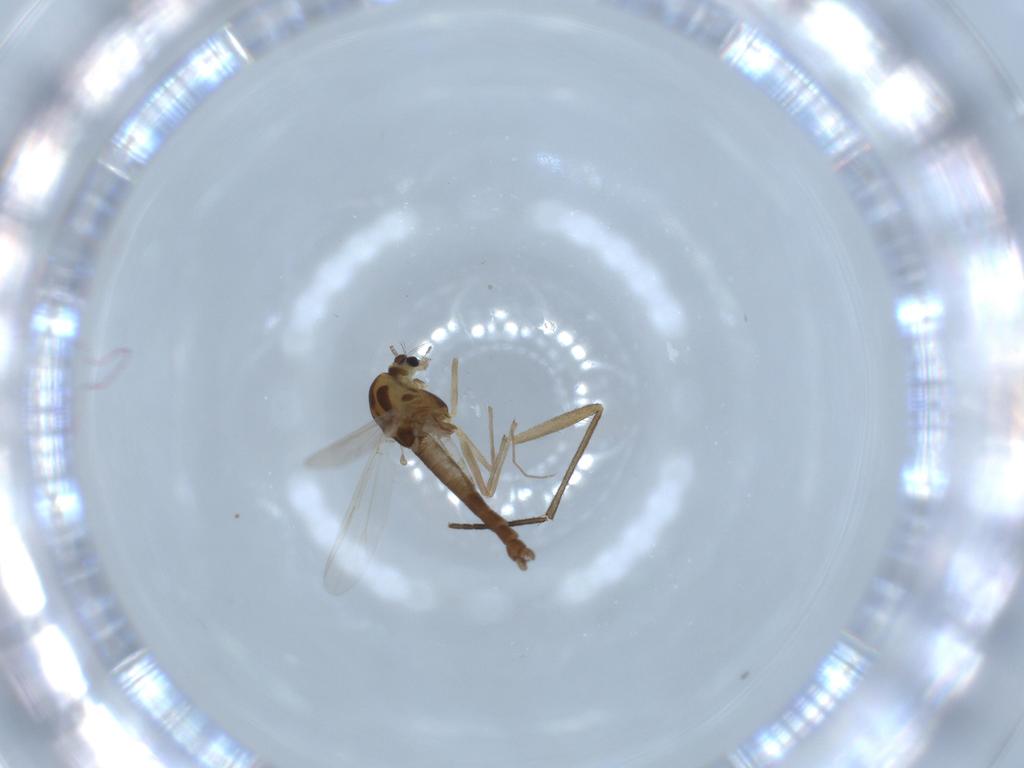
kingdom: Animalia
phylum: Arthropoda
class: Insecta
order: Diptera
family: Chironomidae
